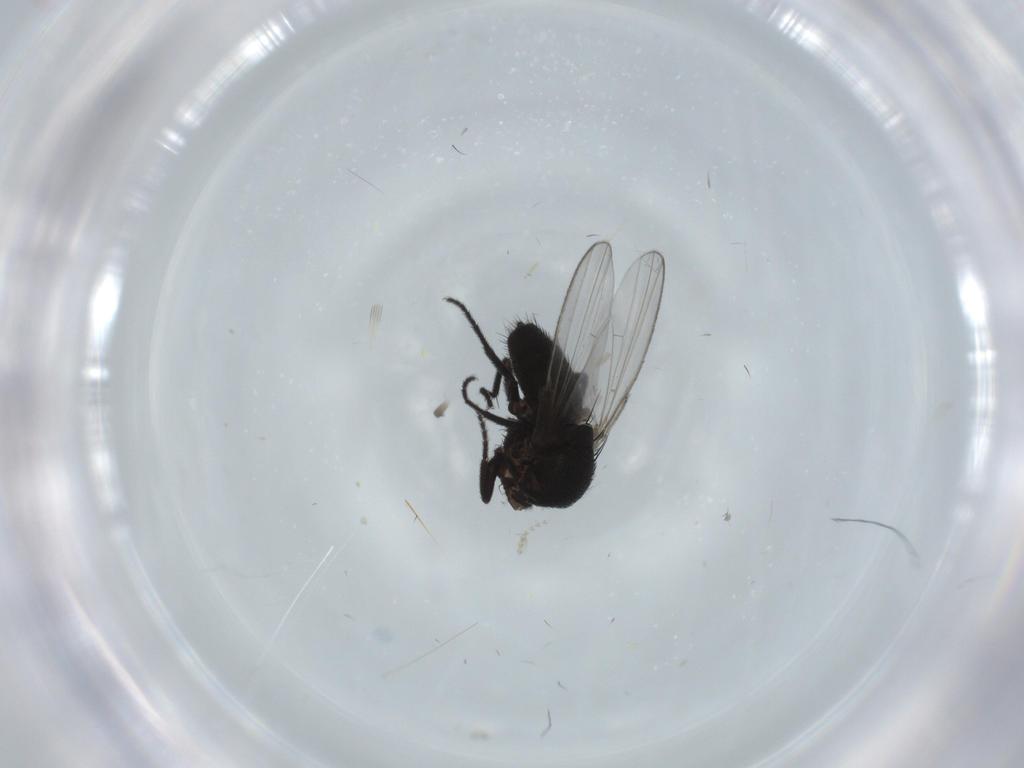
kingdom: Animalia
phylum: Arthropoda
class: Insecta
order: Diptera
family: Milichiidae
